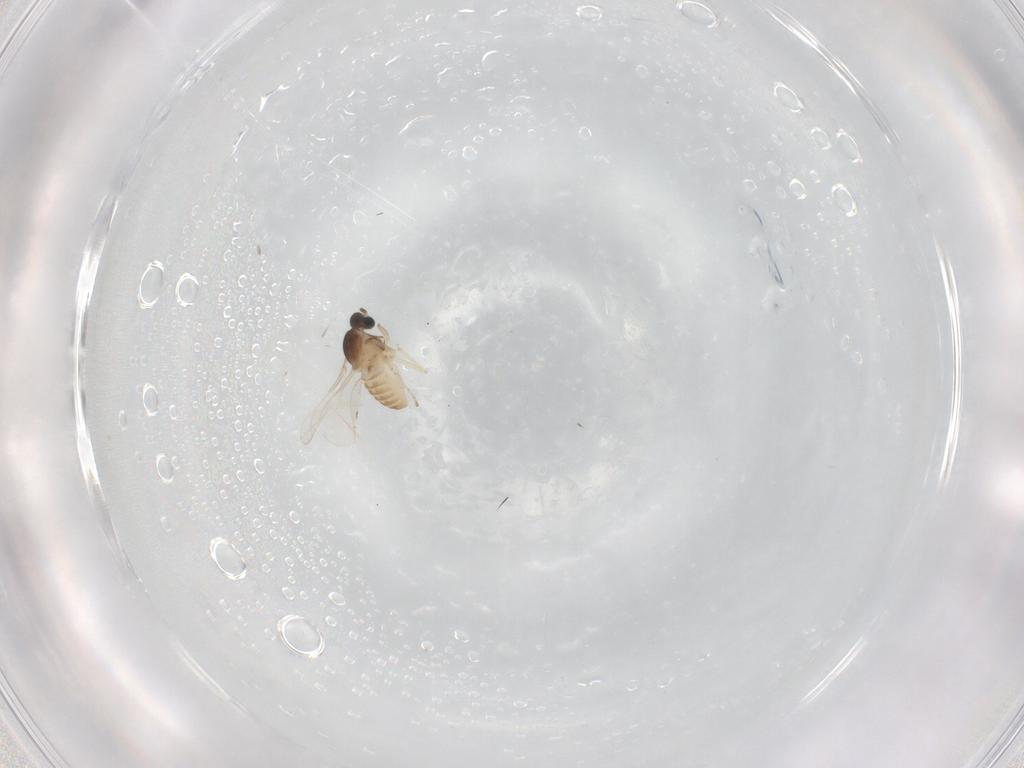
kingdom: Animalia
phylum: Arthropoda
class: Insecta
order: Diptera
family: Cecidomyiidae
